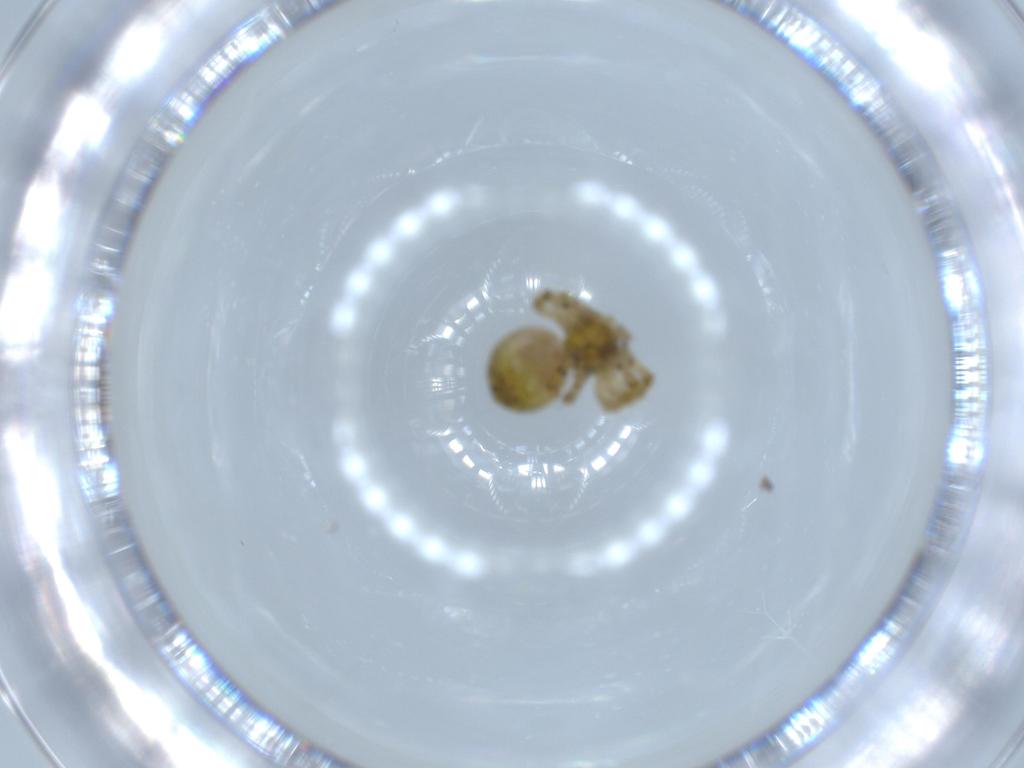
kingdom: Animalia
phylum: Arthropoda
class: Arachnida
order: Araneae
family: Araneidae
